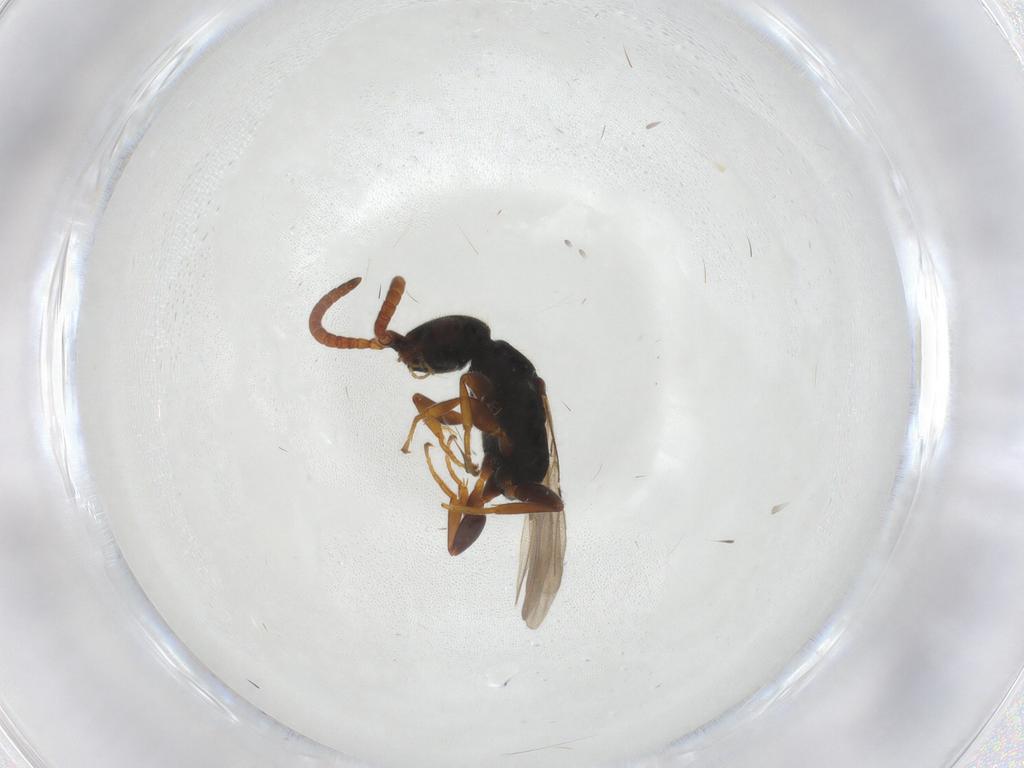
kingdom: Animalia
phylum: Arthropoda
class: Insecta
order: Hymenoptera
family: Bethylidae
